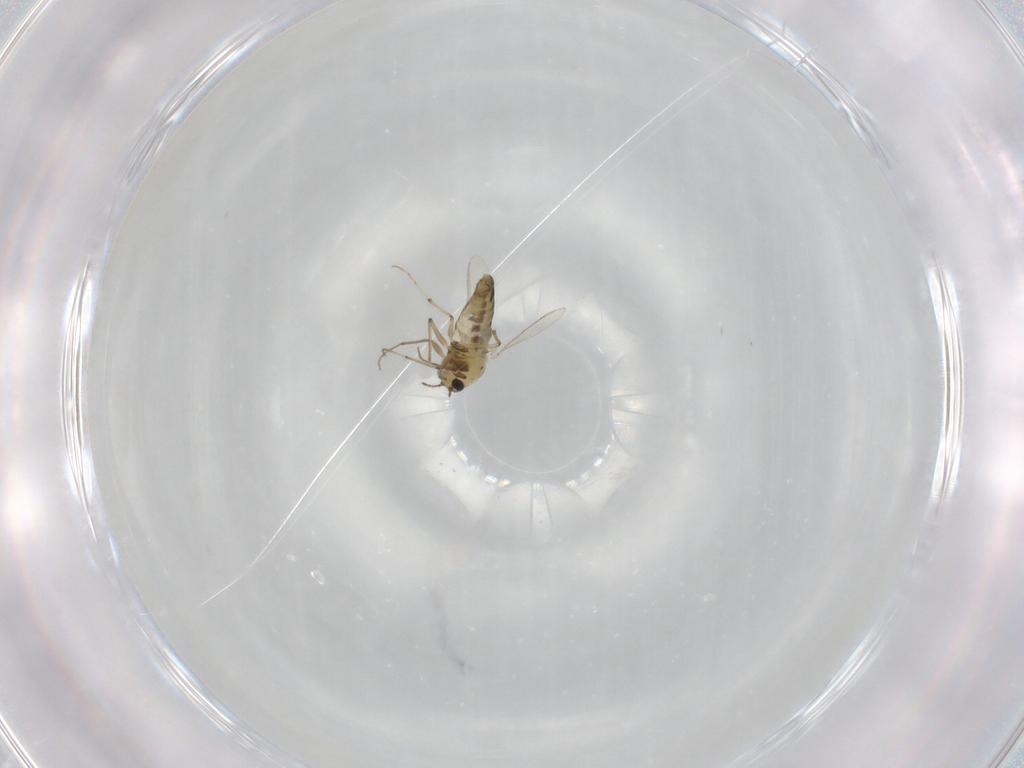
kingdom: Animalia
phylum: Arthropoda
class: Insecta
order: Diptera
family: Chironomidae
